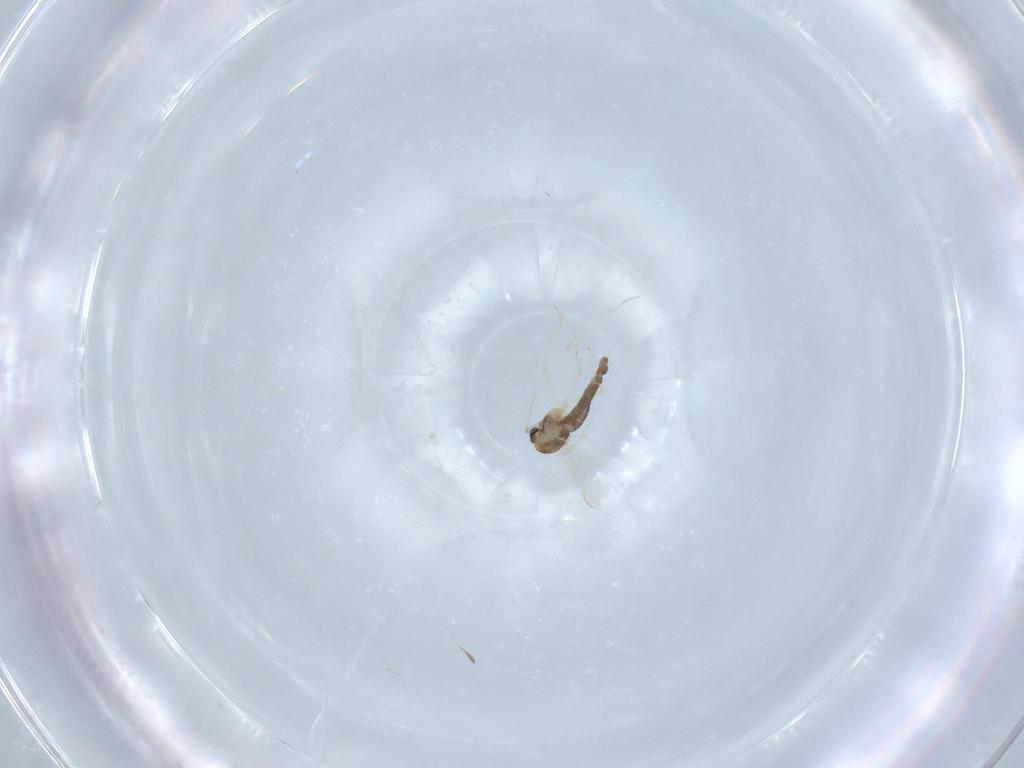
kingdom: Animalia
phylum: Arthropoda
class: Insecta
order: Diptera
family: Chironomidae
